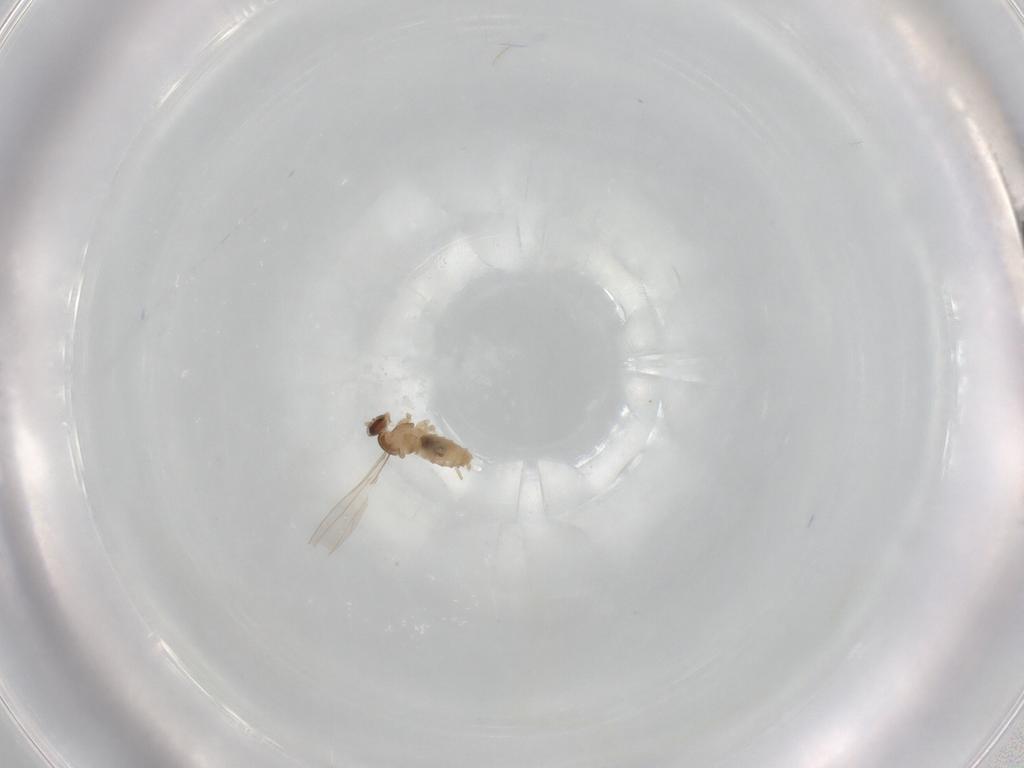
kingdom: Animalia
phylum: Arthropoda
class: Insecta
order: Diptera
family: Cecidomyiidae
